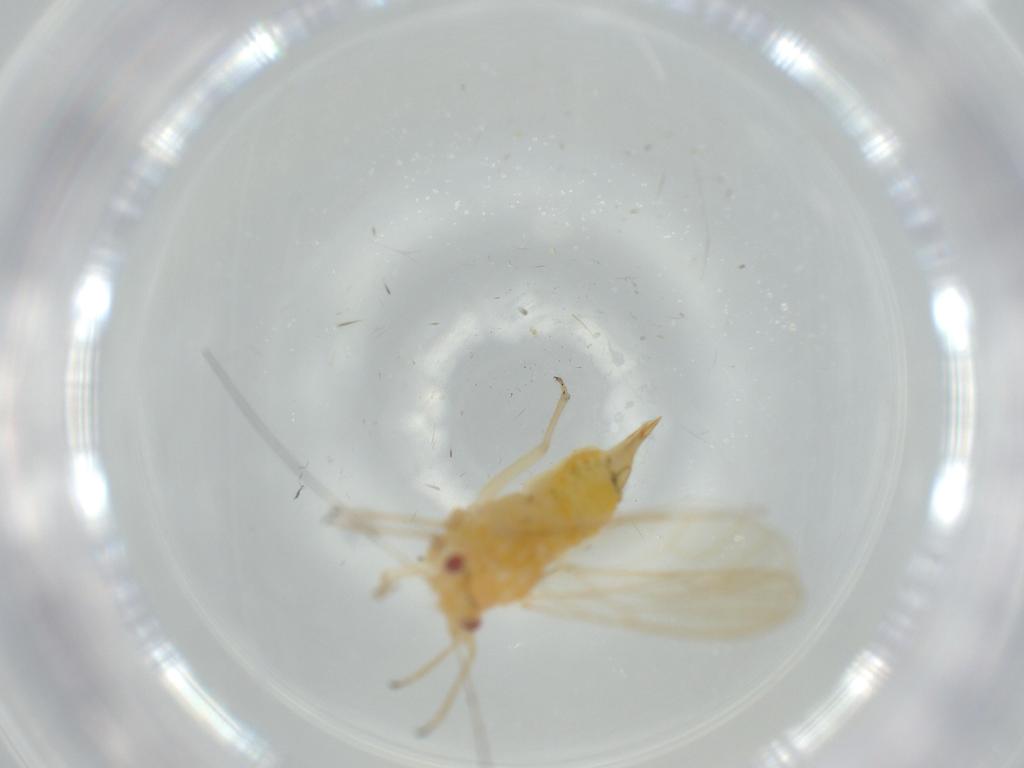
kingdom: Animalia
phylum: Arthropoda
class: Insecta
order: Hemiptera
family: Psyllidae
